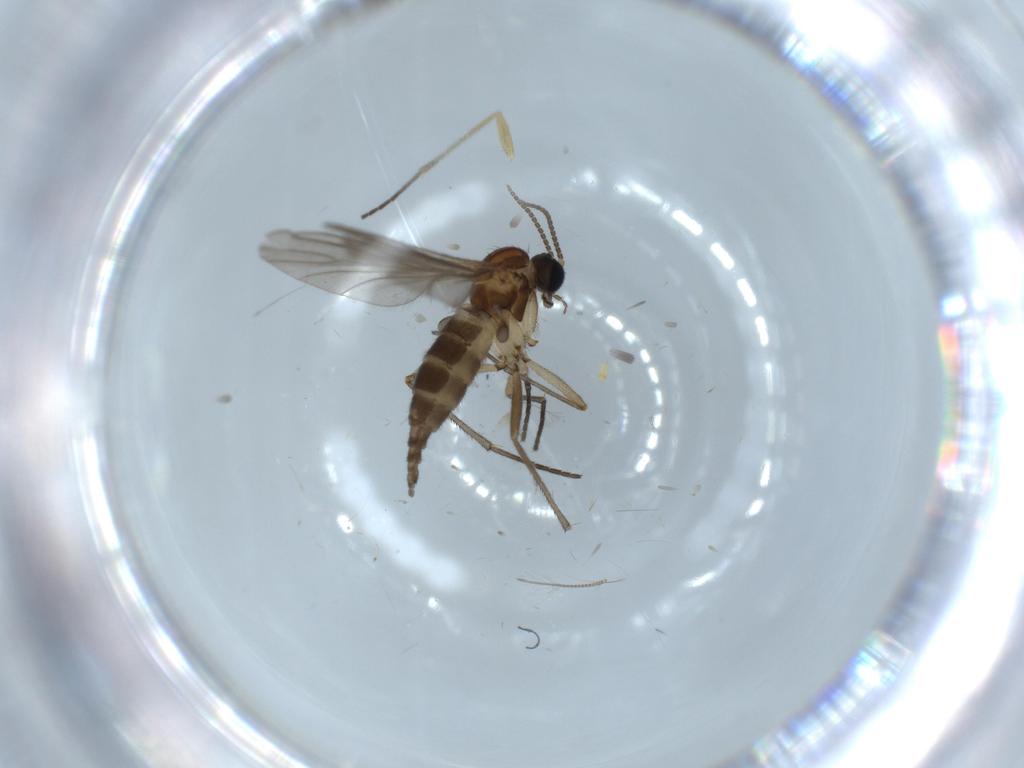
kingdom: Animalia
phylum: Arthropoda
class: Insecta
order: Diptera
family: Sciaridae
